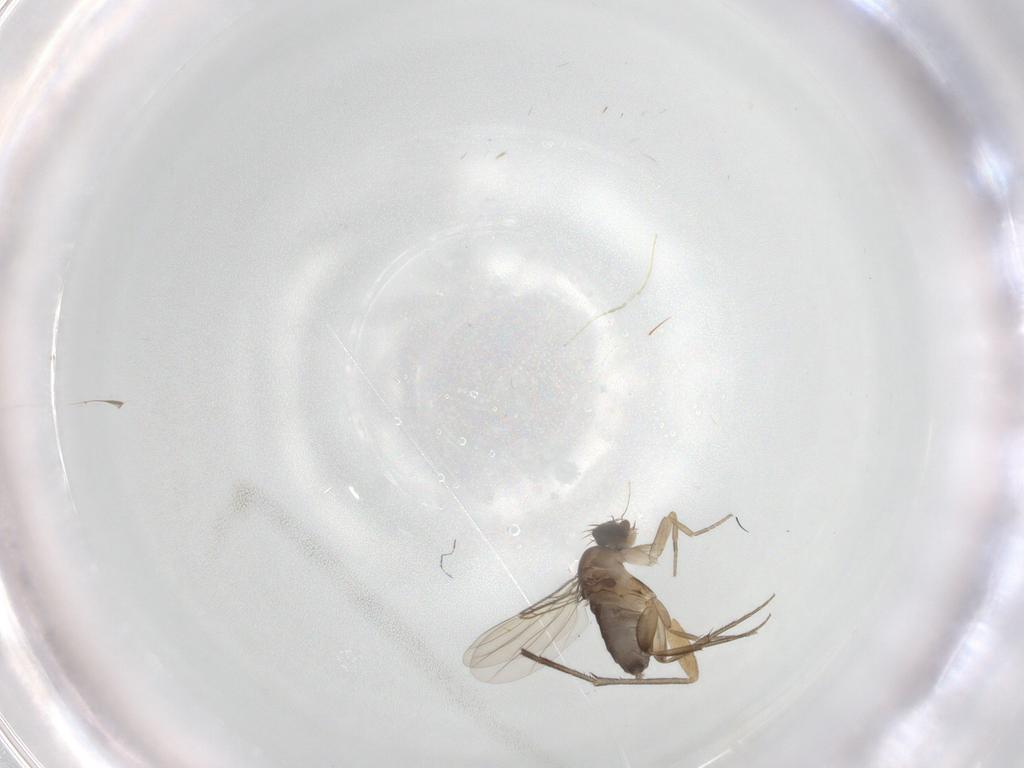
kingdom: Animalia
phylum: Arthropoda
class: Insecta
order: Diptera
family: Phoridae
